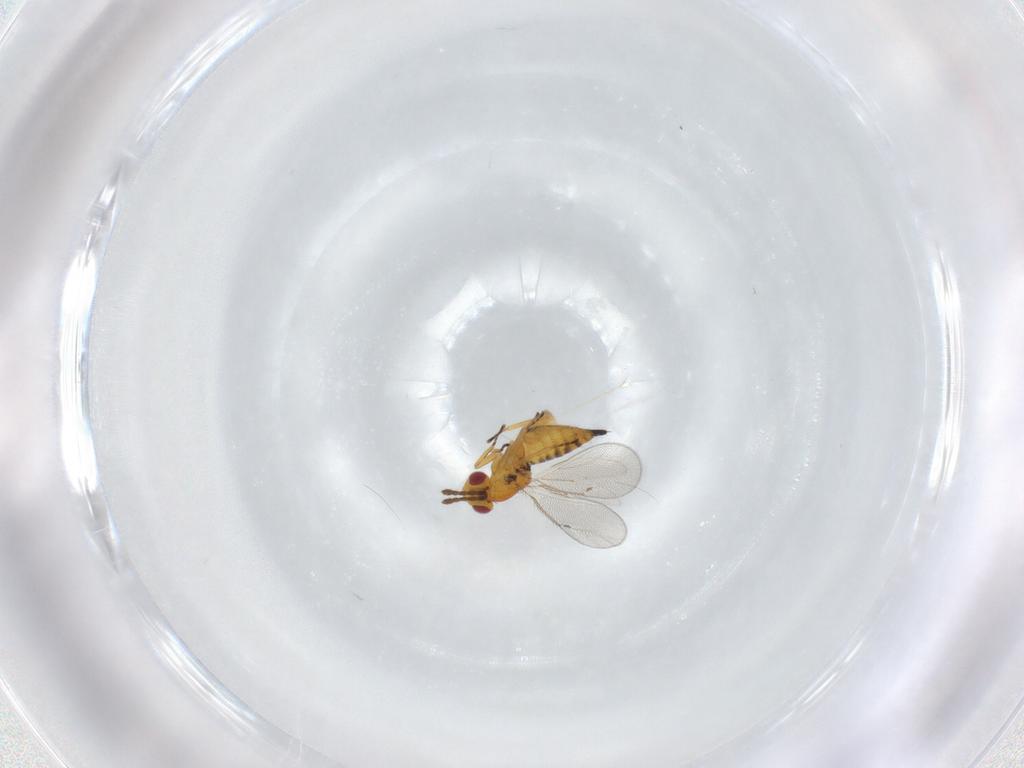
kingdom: Animalia
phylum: Arthropoda
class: Insecta
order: Hymenoptera
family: Eulophidae
